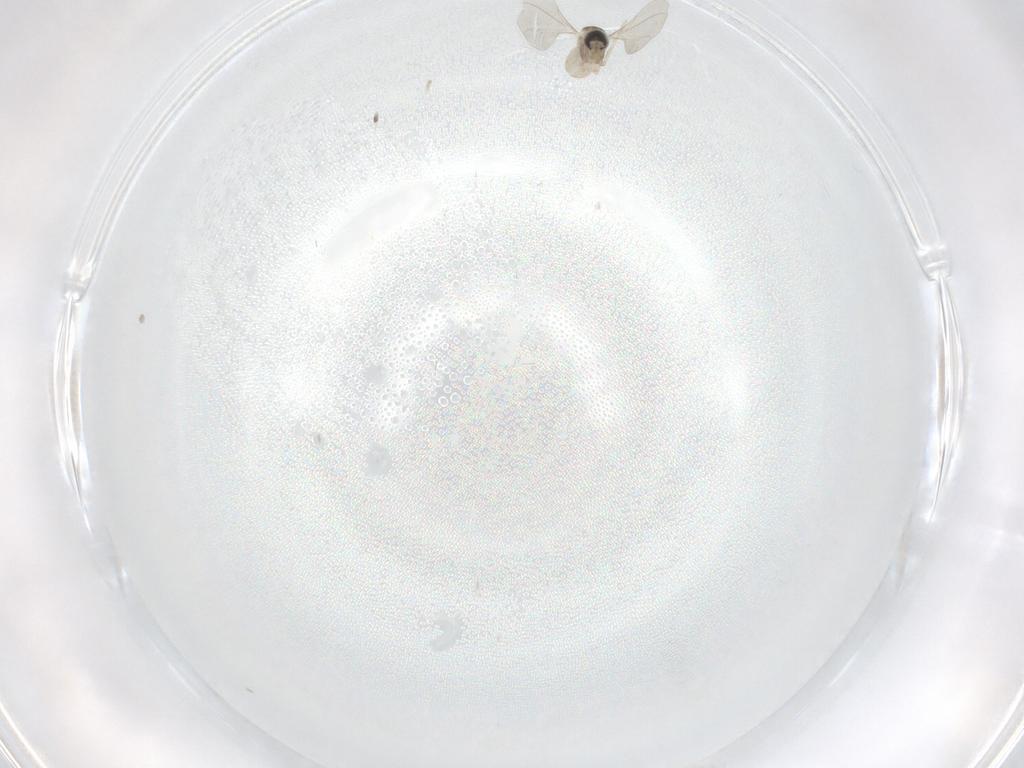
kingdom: Animalia
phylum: Arthropoda
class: Insecta
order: Diptera
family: Cecidomyiidae
